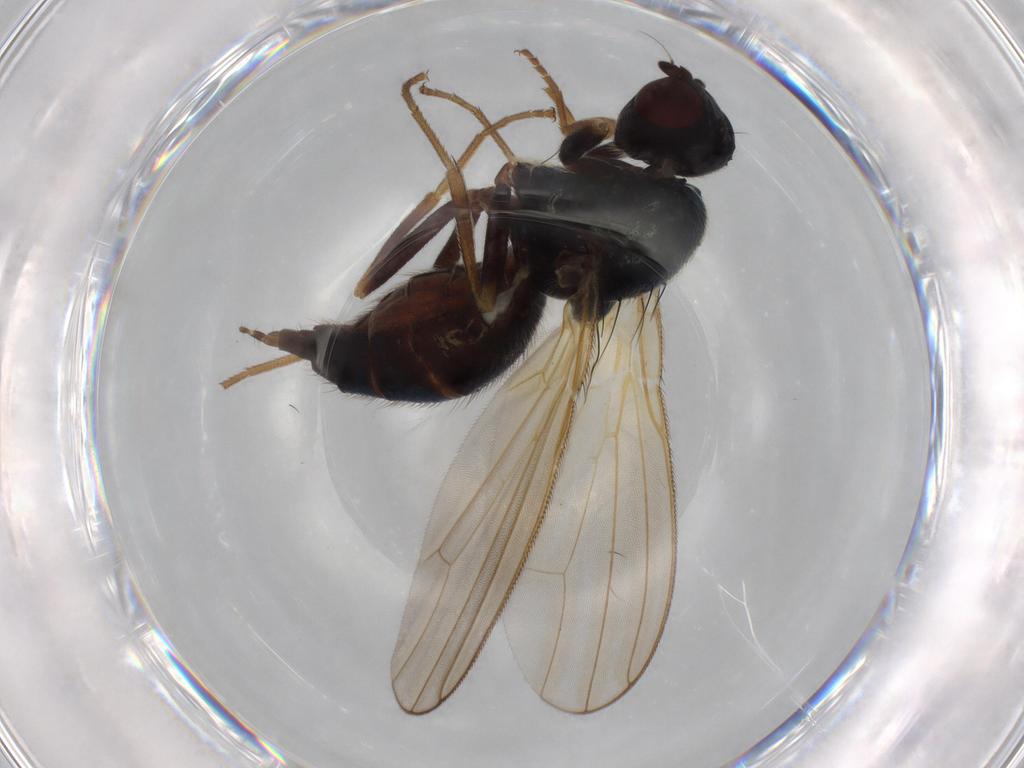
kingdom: Animalia
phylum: Arthropoda
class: Insecta
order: Diptera
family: Psilidae
